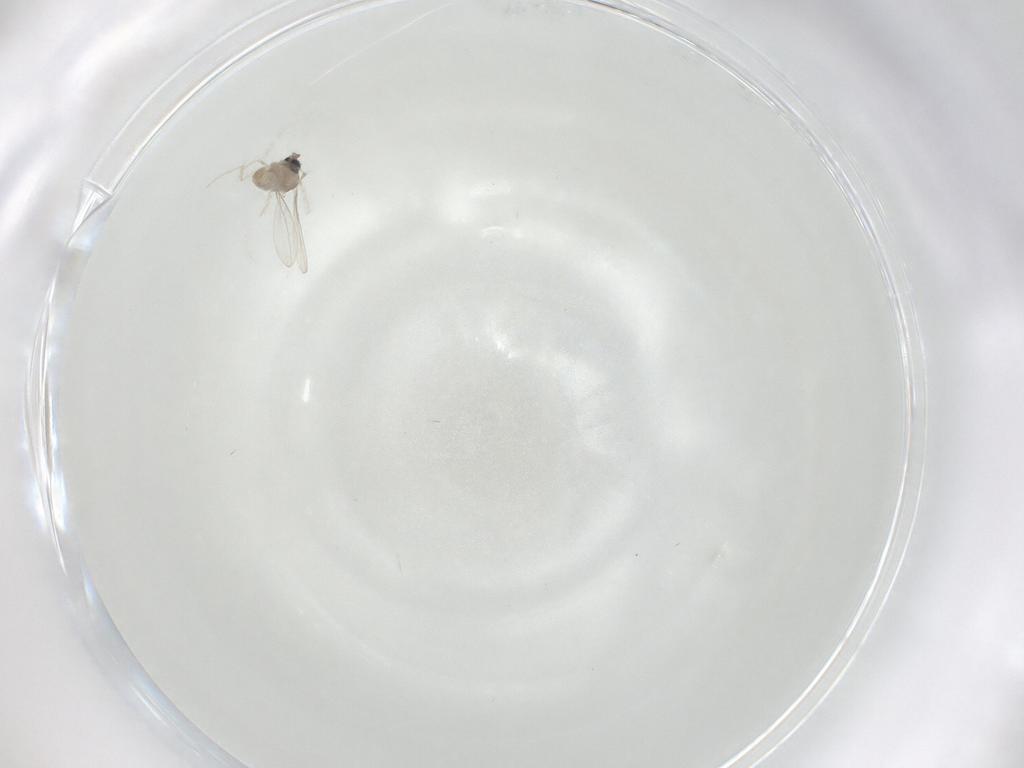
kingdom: Animalia
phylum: Arthropoda
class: Insecta
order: Diptera
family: Cecidomyiidae
